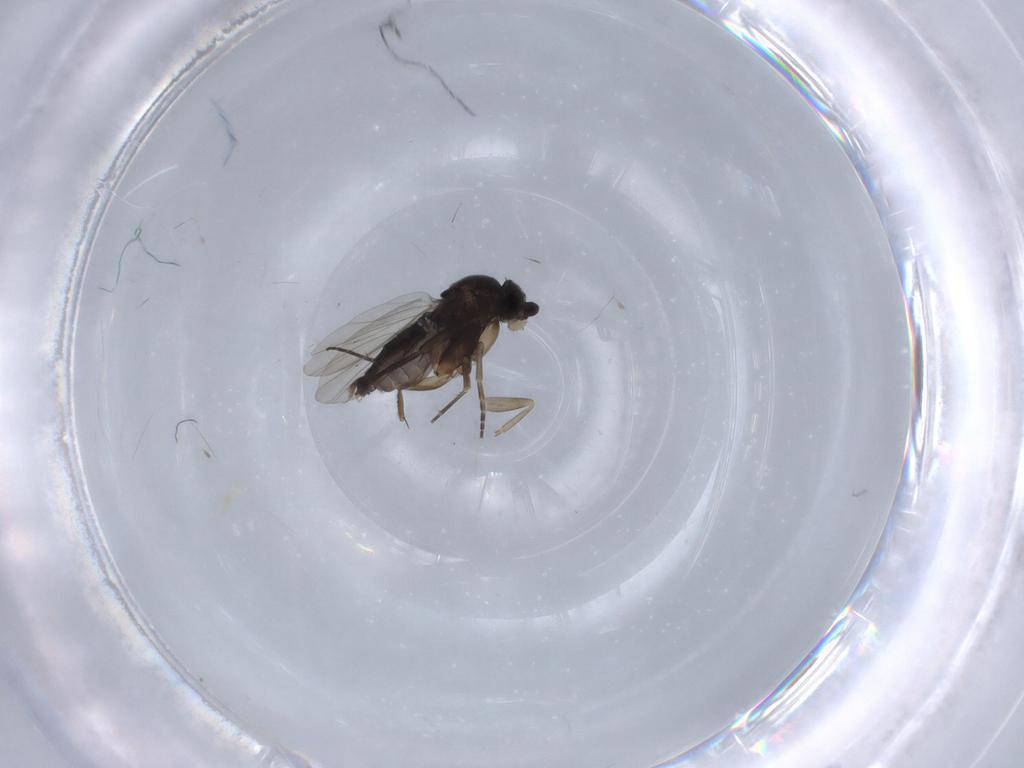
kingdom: Animalia
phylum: Arthropoda
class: Insecta
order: Diptera
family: Phoridae
